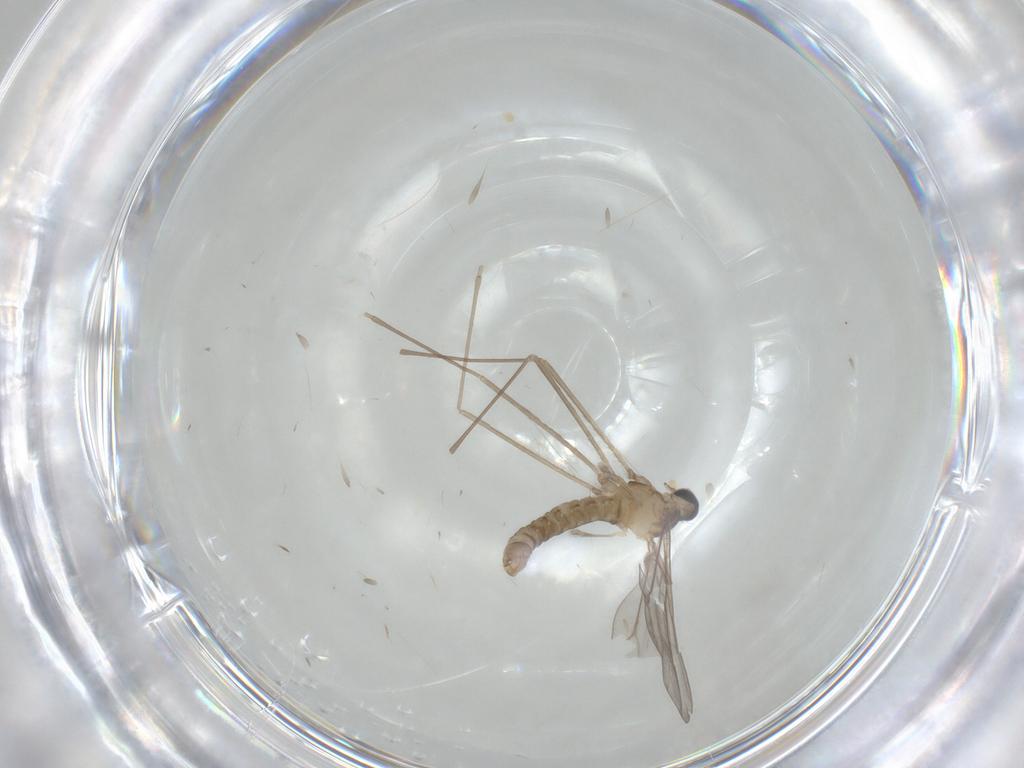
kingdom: Animalia
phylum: Arthropoda
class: Insecta
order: Diptera
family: Cecidomyiidae
